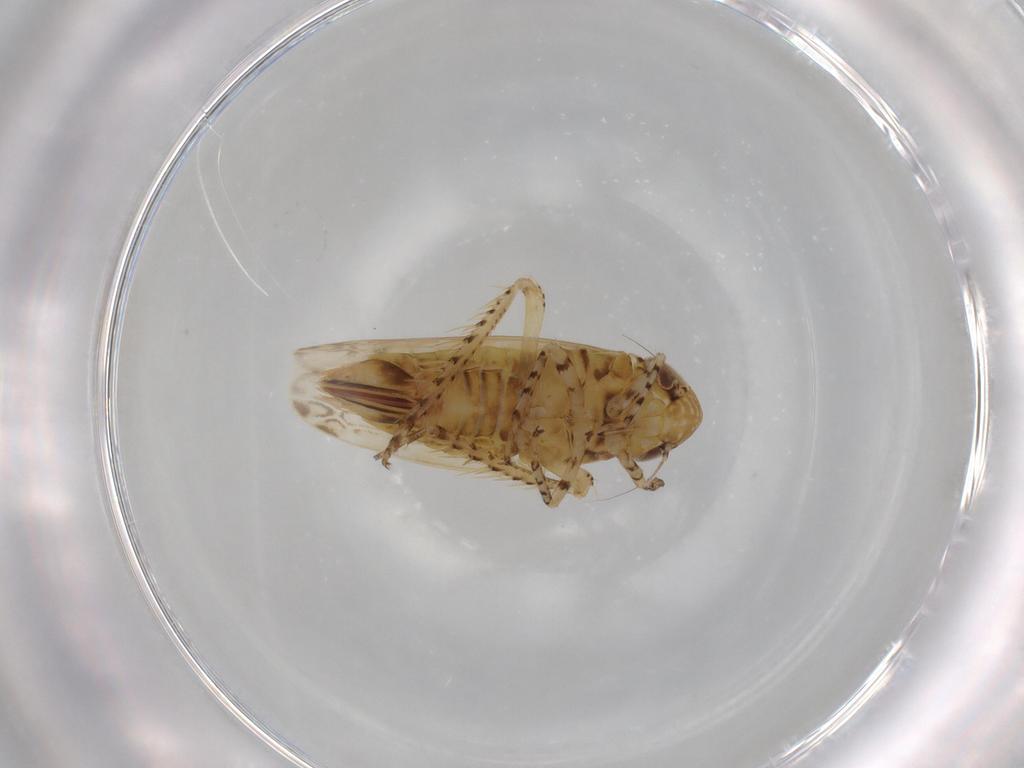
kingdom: Animalia
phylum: Arthropoda
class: Insecta
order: Hemiptera
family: Cicadellidae
